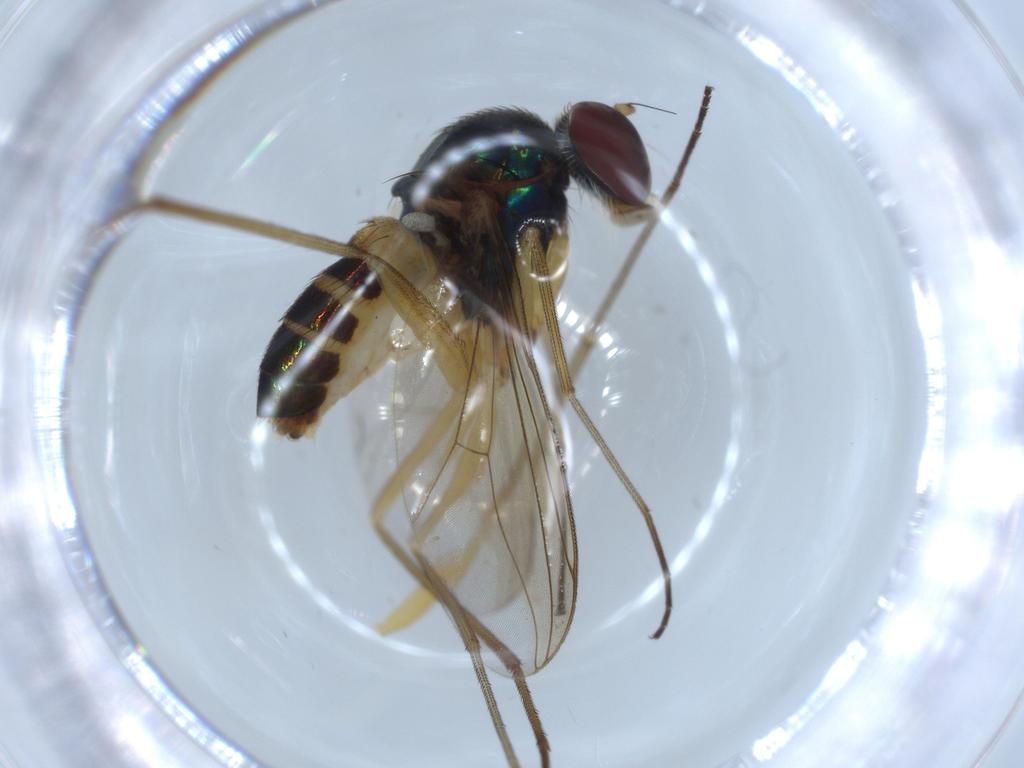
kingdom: Animalia
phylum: Arthropoda
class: Insecta
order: Diptera
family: Dolichopodidae
